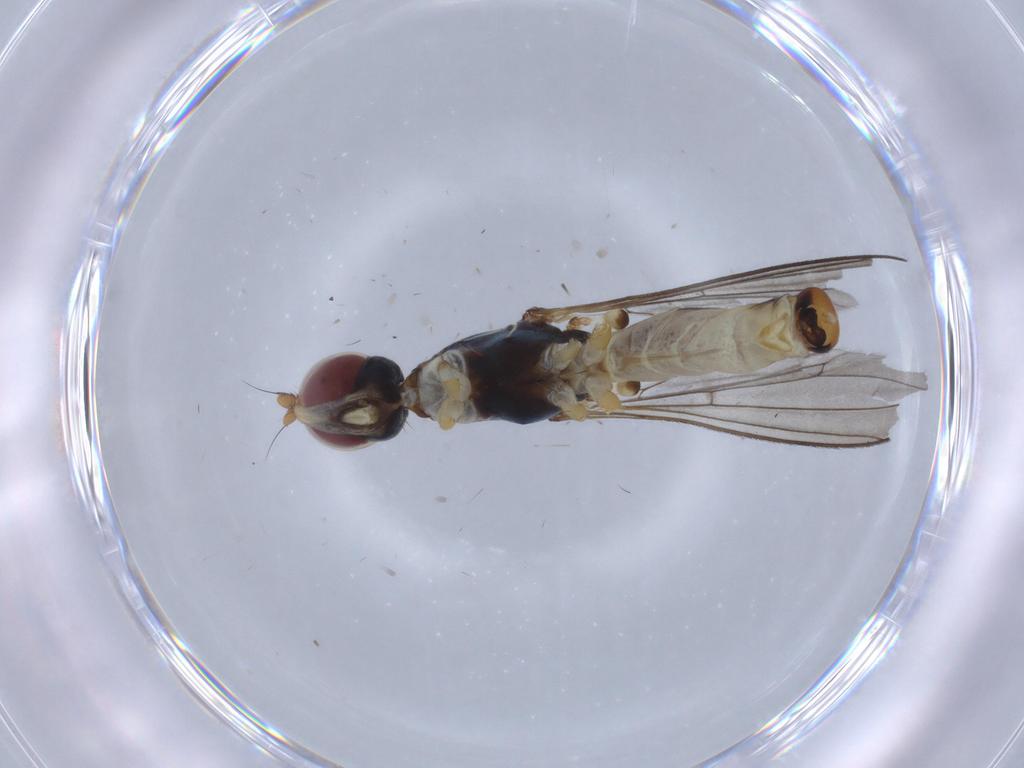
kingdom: Animalia
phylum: Arthropoda
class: Insecta
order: Diptera
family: Micropezidae
